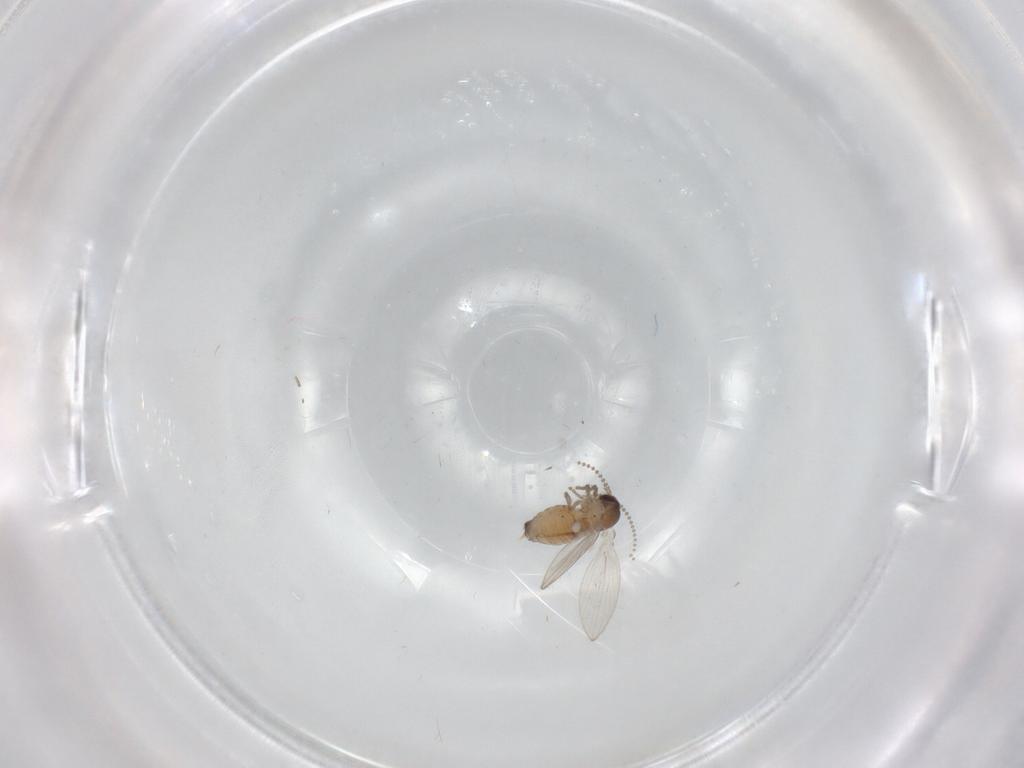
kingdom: Animalia
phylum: Arthropoda
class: Insecta
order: Diptera
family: Psychodidae
